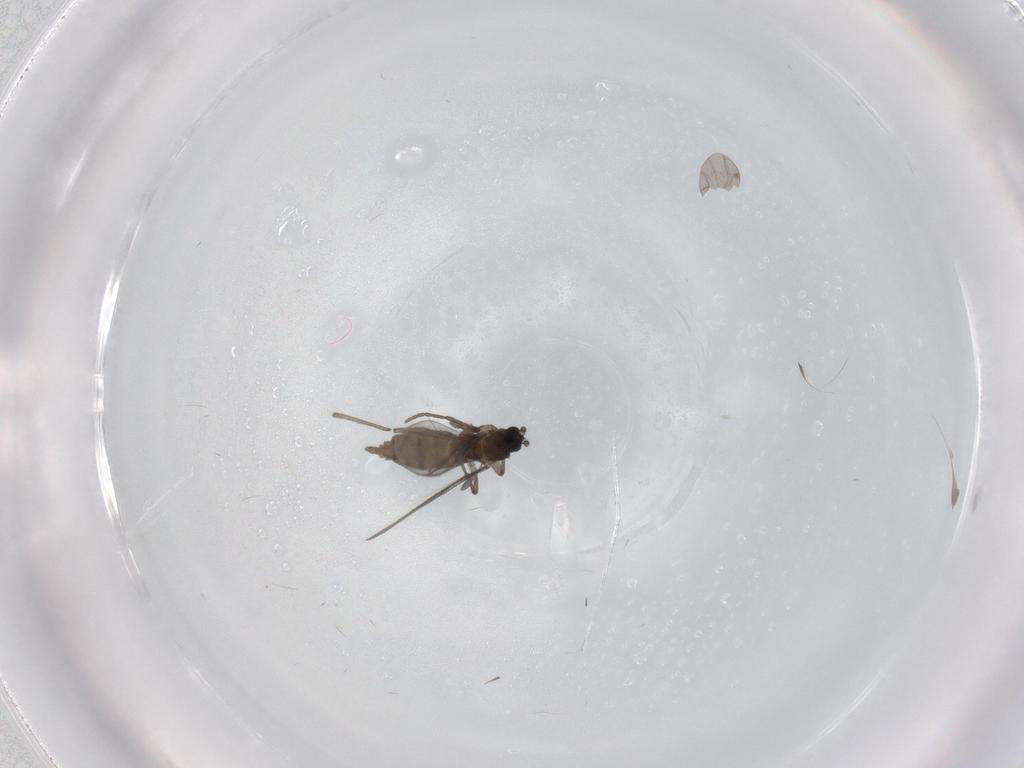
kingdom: Animalia
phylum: Arthropoda
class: Insecta
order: Diptera
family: Sciaridae
